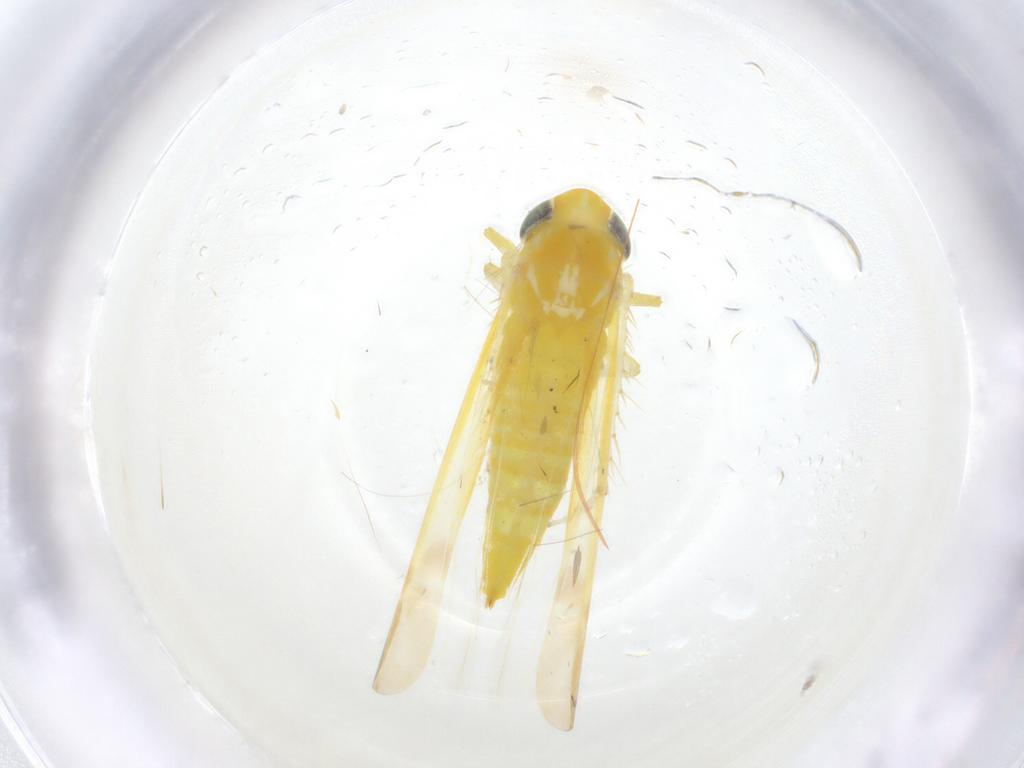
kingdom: Animalia
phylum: Arthropoda
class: Insecta
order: Hemiptera
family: Cicadellidae
